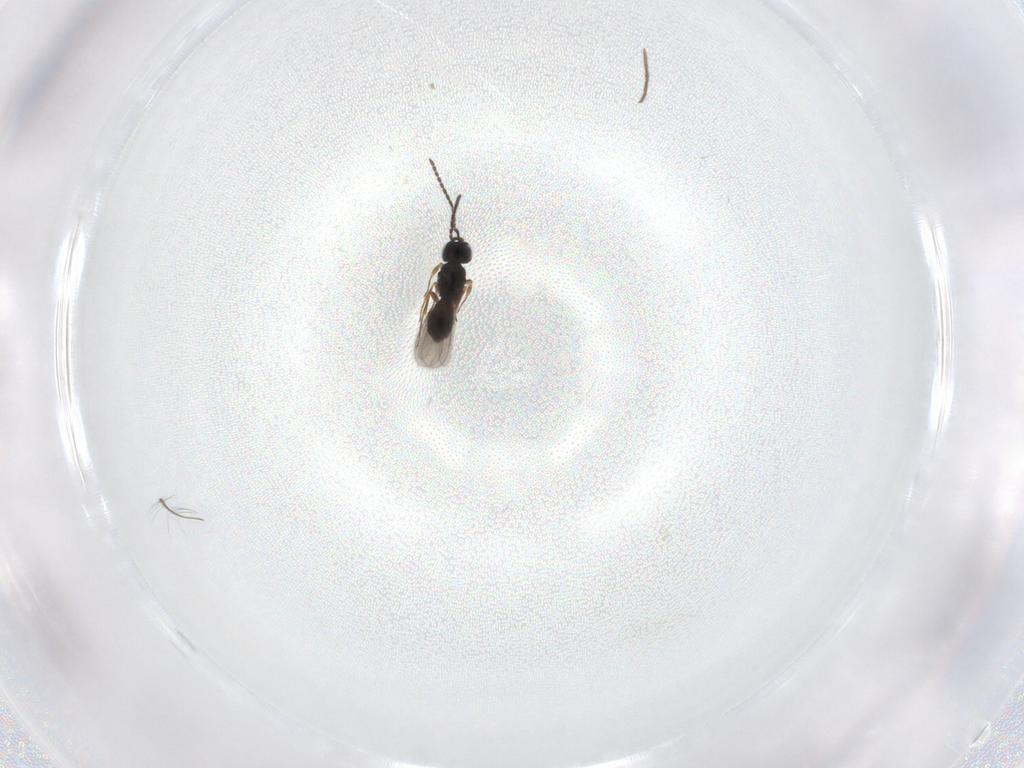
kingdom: Animalia
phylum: Arthropoda
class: Insecta
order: Hymenoptera
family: Scelionidae
